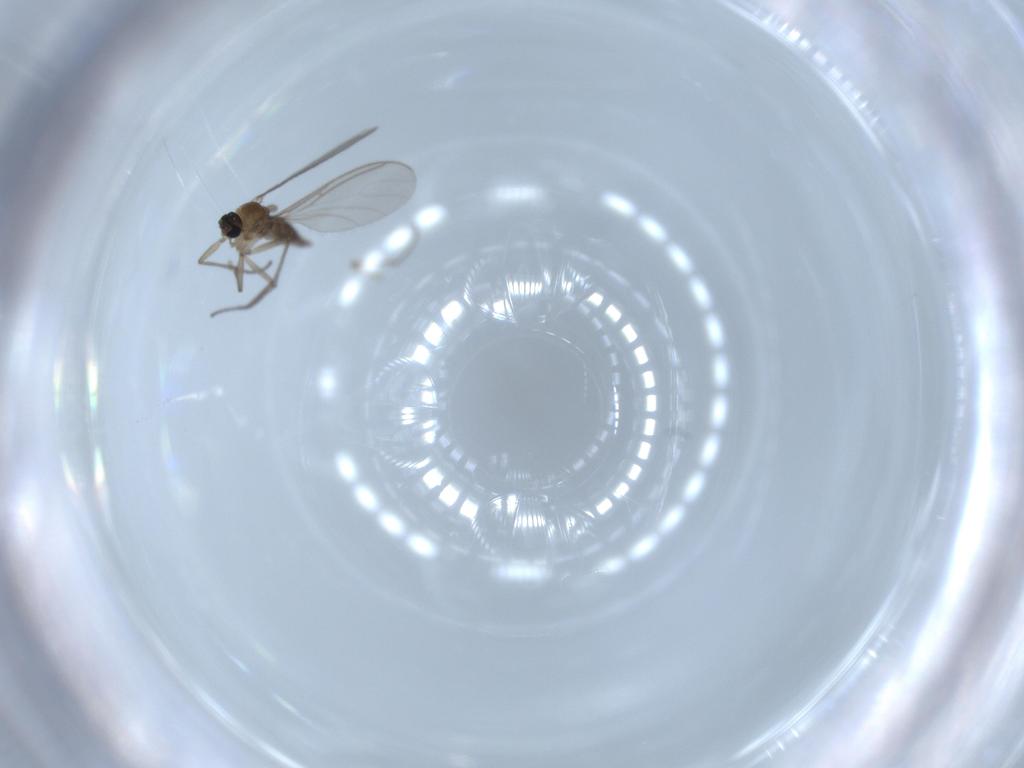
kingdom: Animalia
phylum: Arthropoda
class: Insecta
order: Diptera
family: Sciaridae
